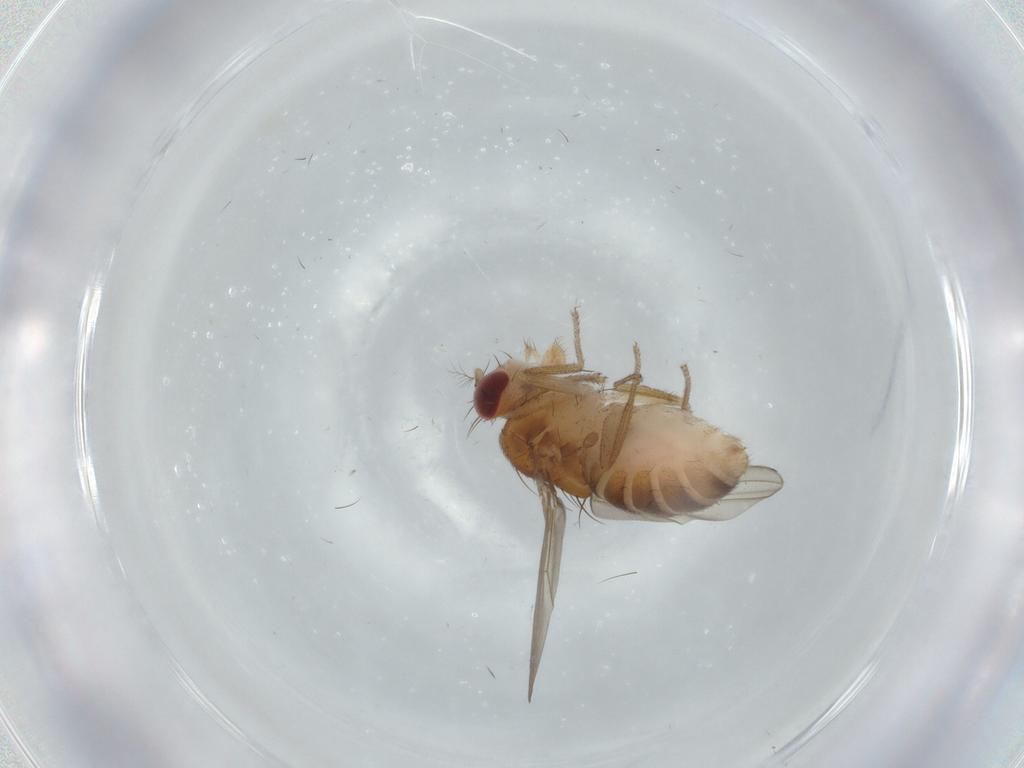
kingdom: Animalia
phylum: Arthropoda
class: Insecta
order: Diptera
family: Drosophilidae
